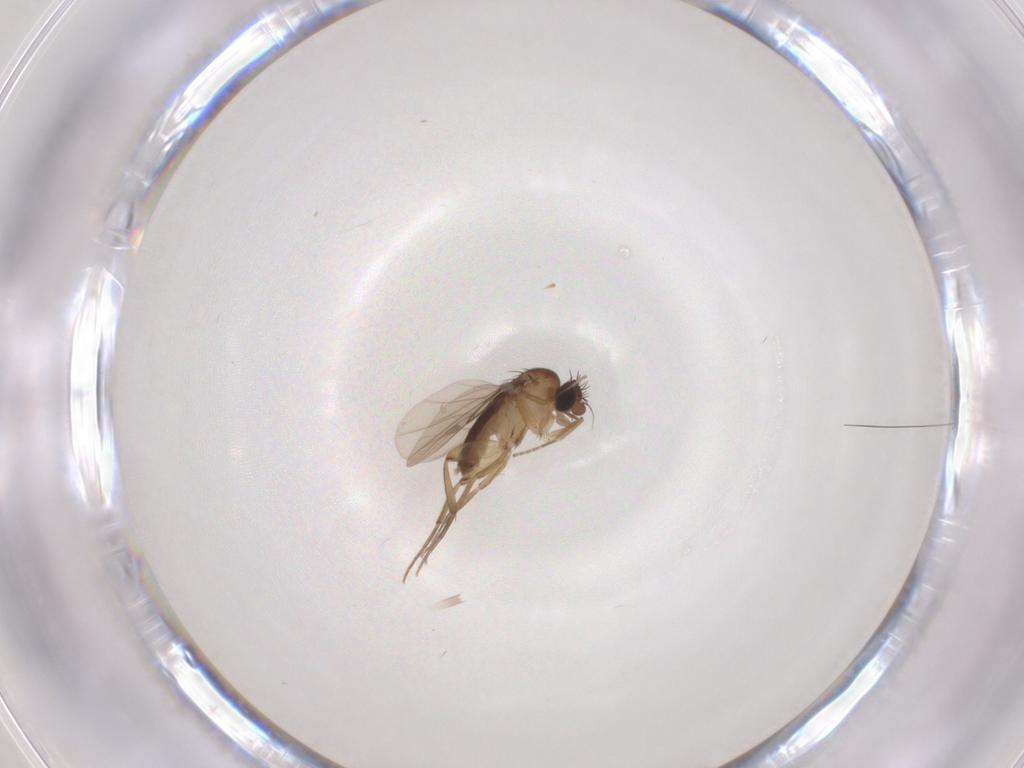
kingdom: Animalia
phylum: Arthropoda
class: Insecta
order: Diptera
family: Phoridae
